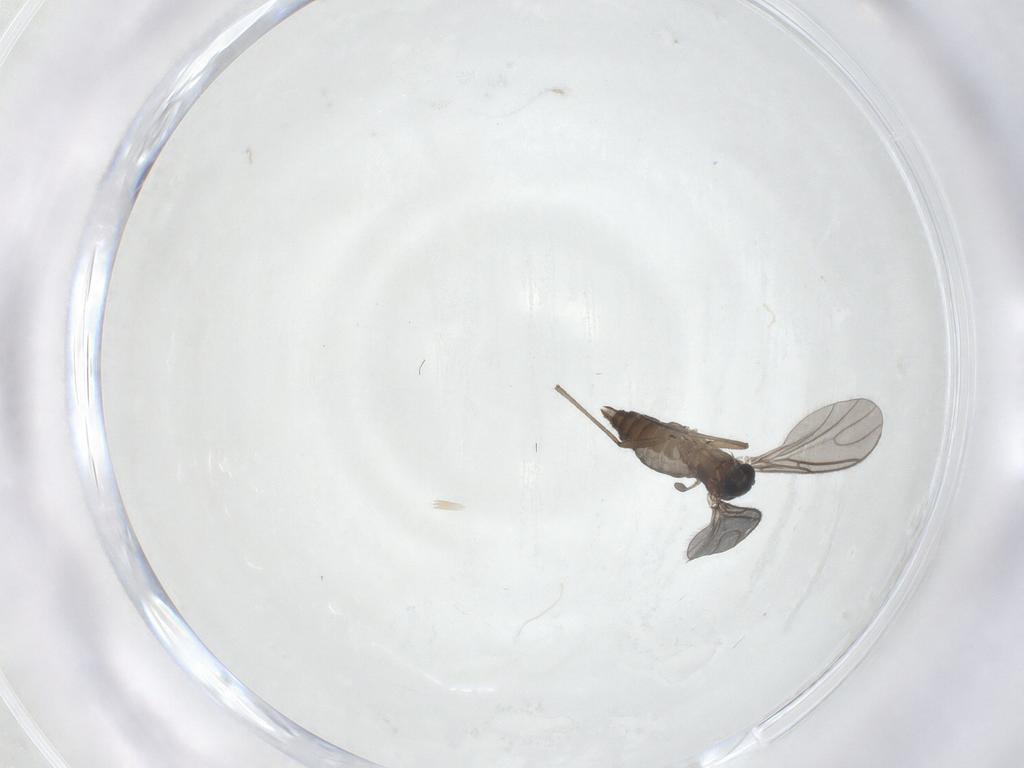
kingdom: Animalia
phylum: Arthropoda
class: Insecta
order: Diptera
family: Sciaridae
